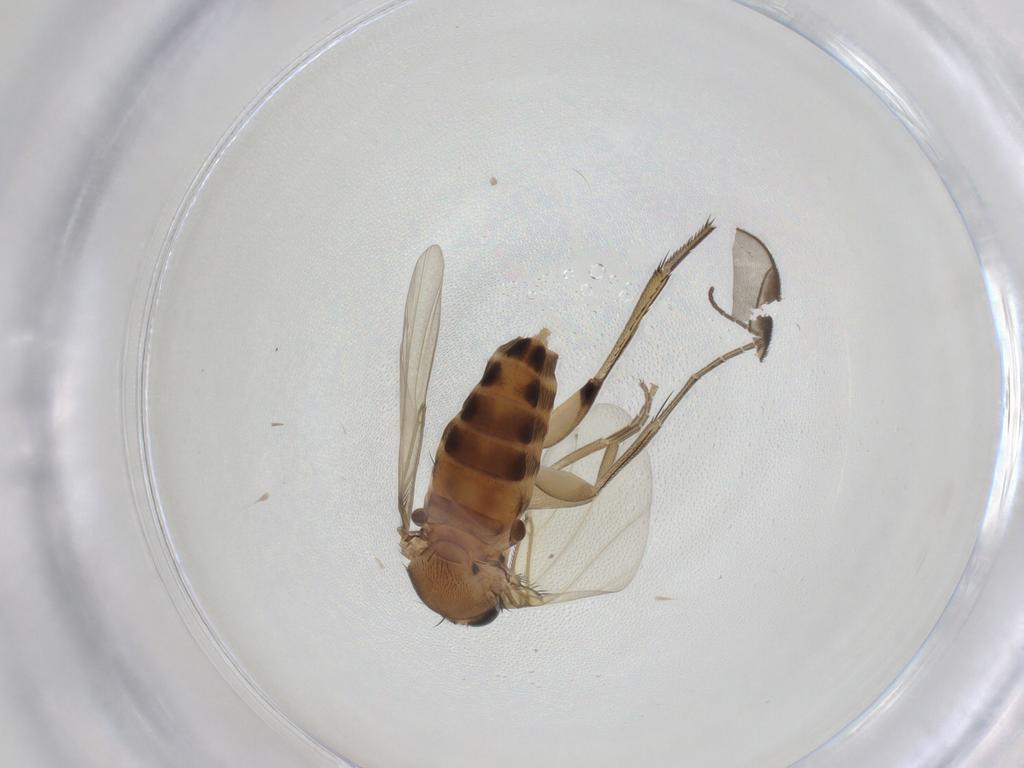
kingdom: Animalia
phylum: Arthropoda
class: Insecta
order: Diptera
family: Phoridae
